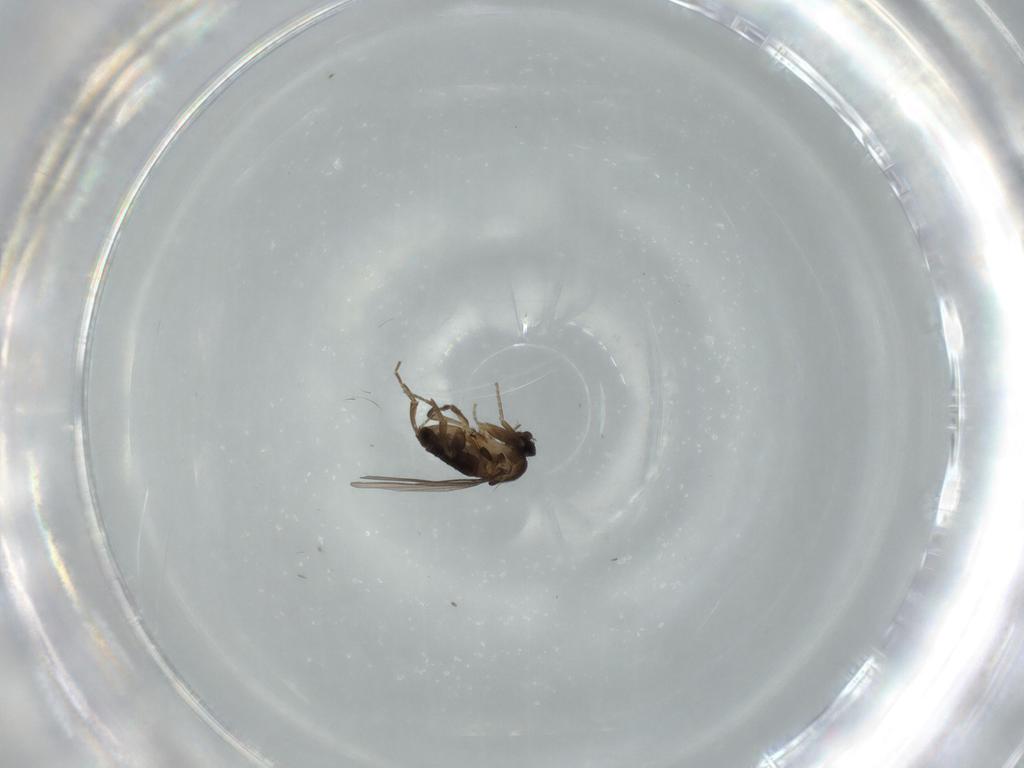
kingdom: Animalia
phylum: Arthropoda
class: Insecta
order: Diptera
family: Phoridae
